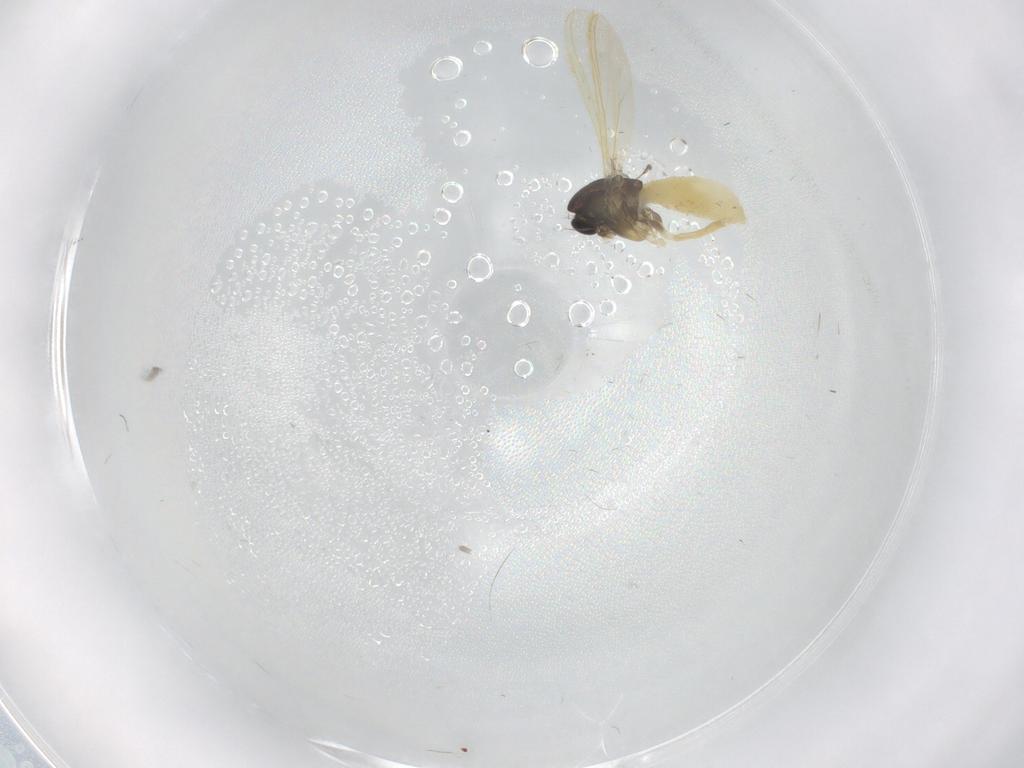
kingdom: Animalia
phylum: Arthropoda
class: Insecta
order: Diptera
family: Chironomidae
